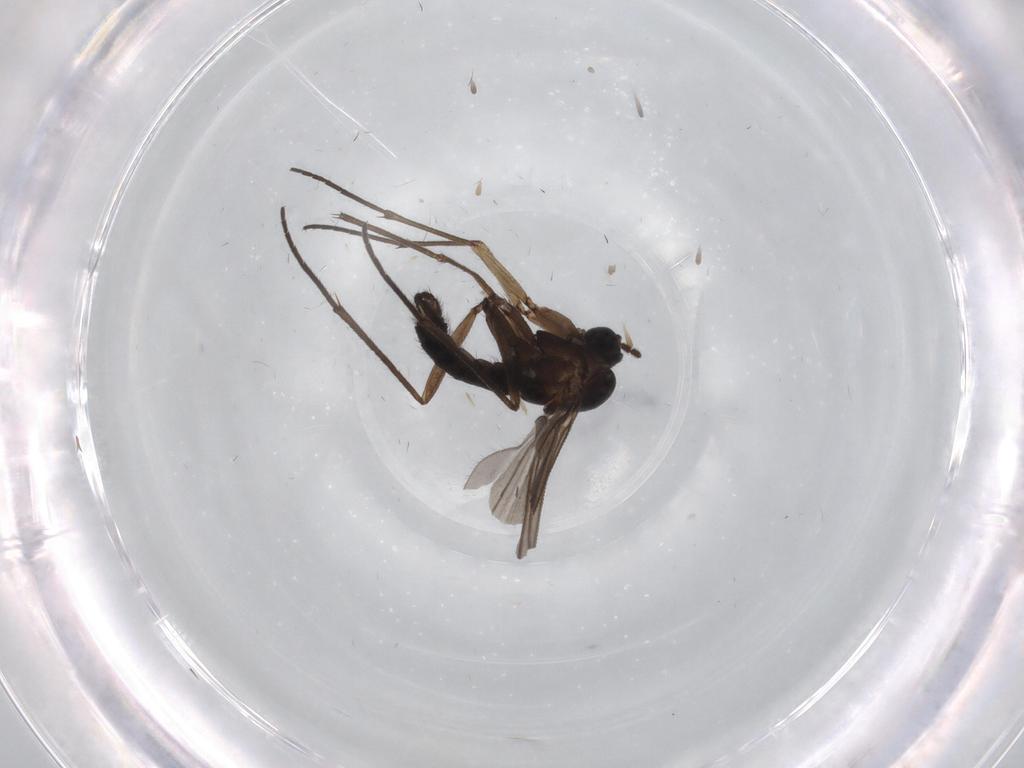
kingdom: Animalia
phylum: Arthropoda
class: Insecta
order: Diptera
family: Sciaridae
